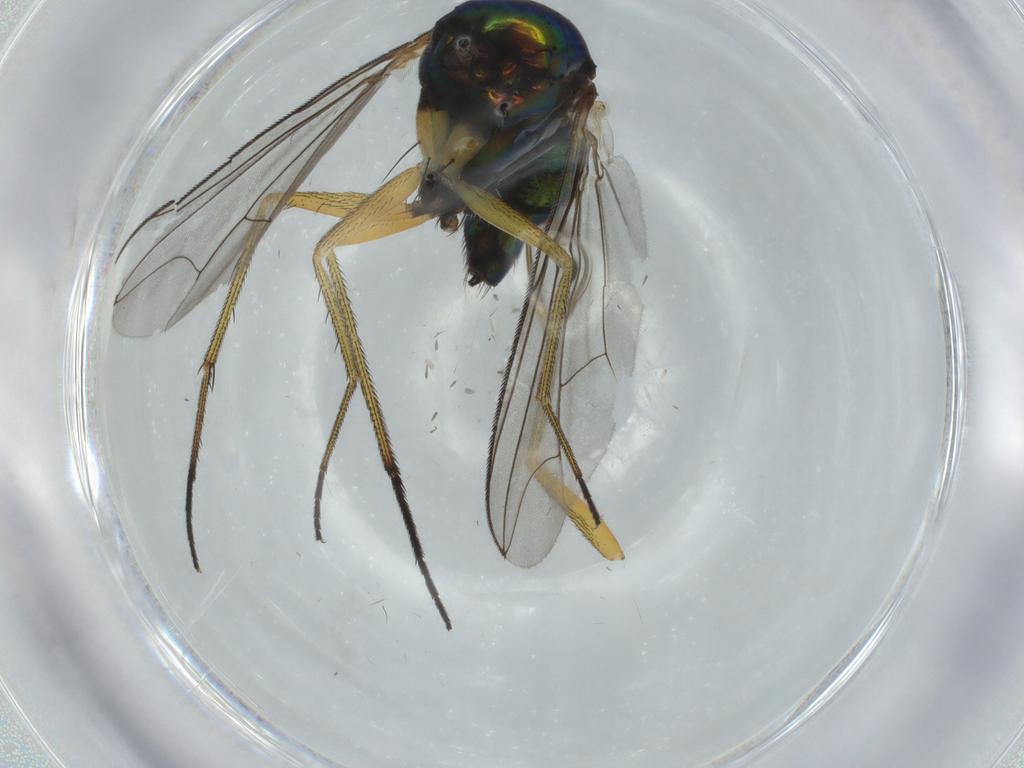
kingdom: Animalia
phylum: Arthropoda
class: Insecta
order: Diptera
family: Chloropidae
